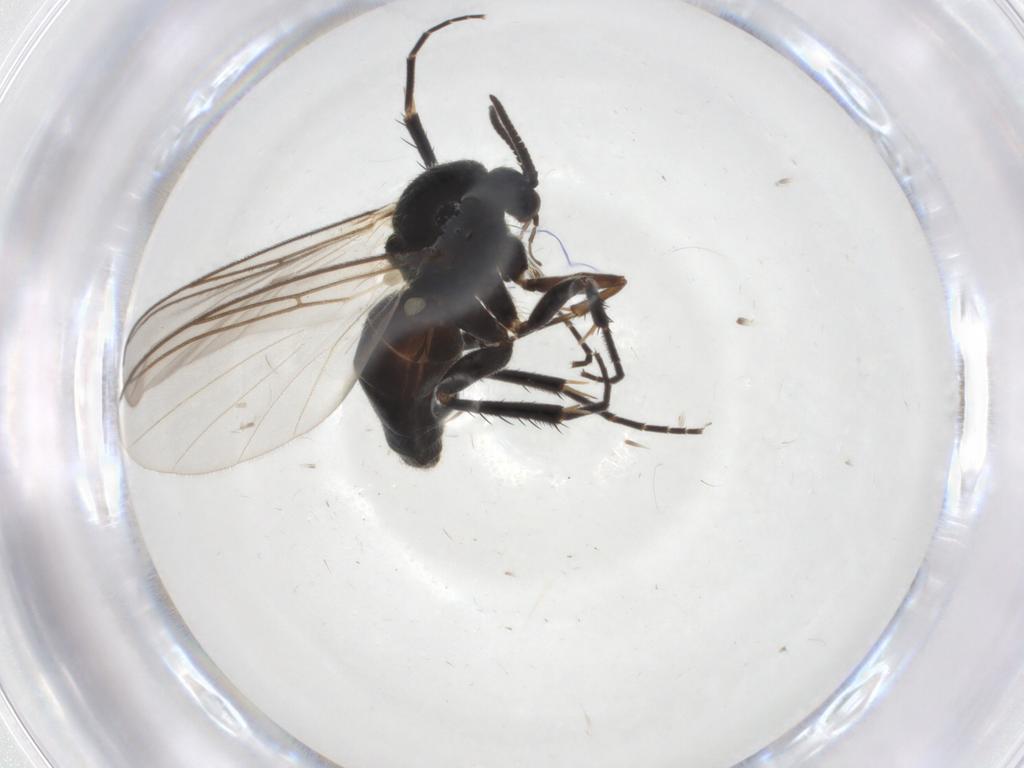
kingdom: Animalia
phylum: Arthropoda
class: Insecta
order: Diptera
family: Mycetophilidae
